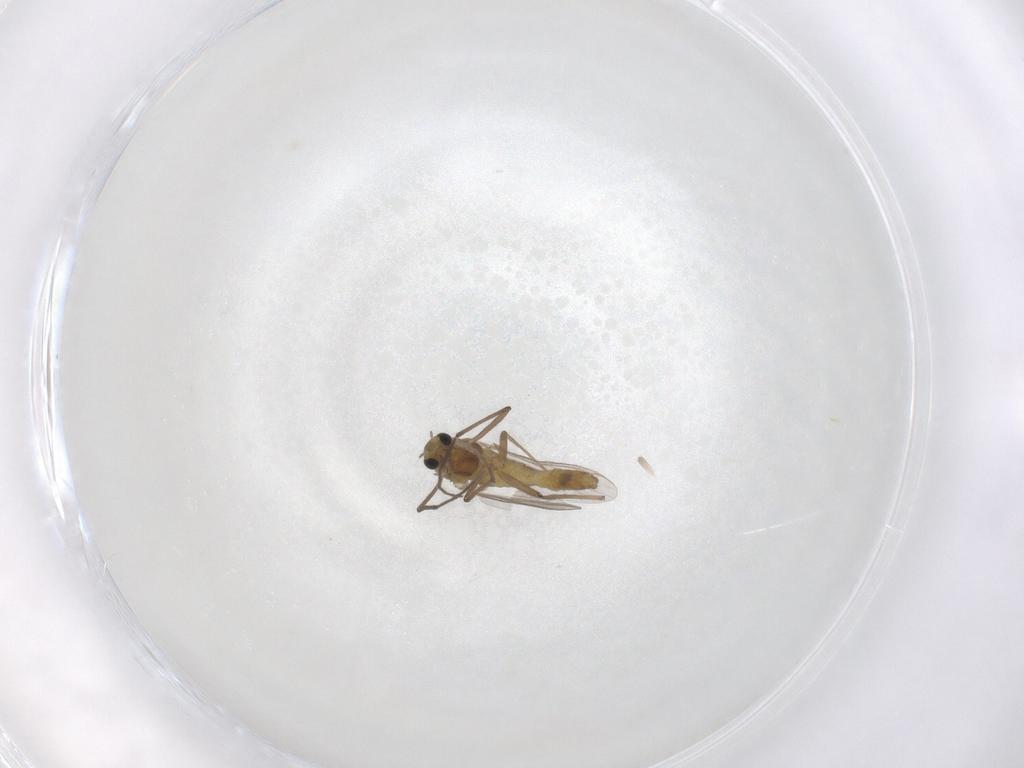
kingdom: Animalia
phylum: Arthropoda
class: Insecta
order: Diptera
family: Chironomidae
